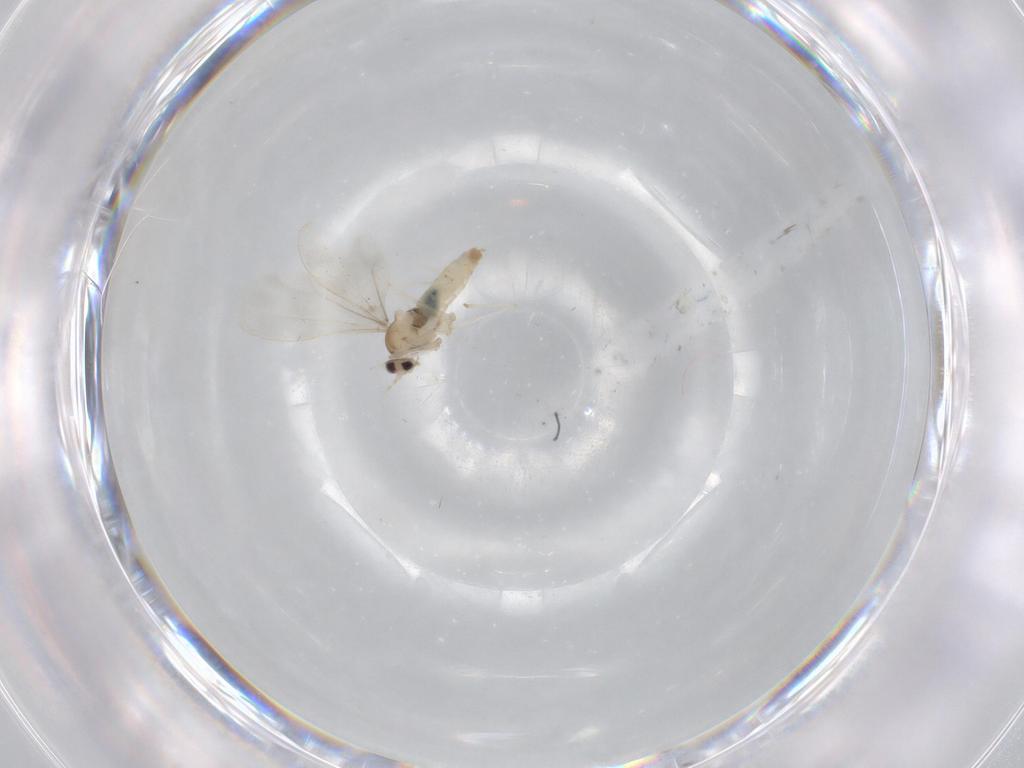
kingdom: Animalia
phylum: Arthropoda
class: Insecta
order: Diptera
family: Cecidomyiidae
